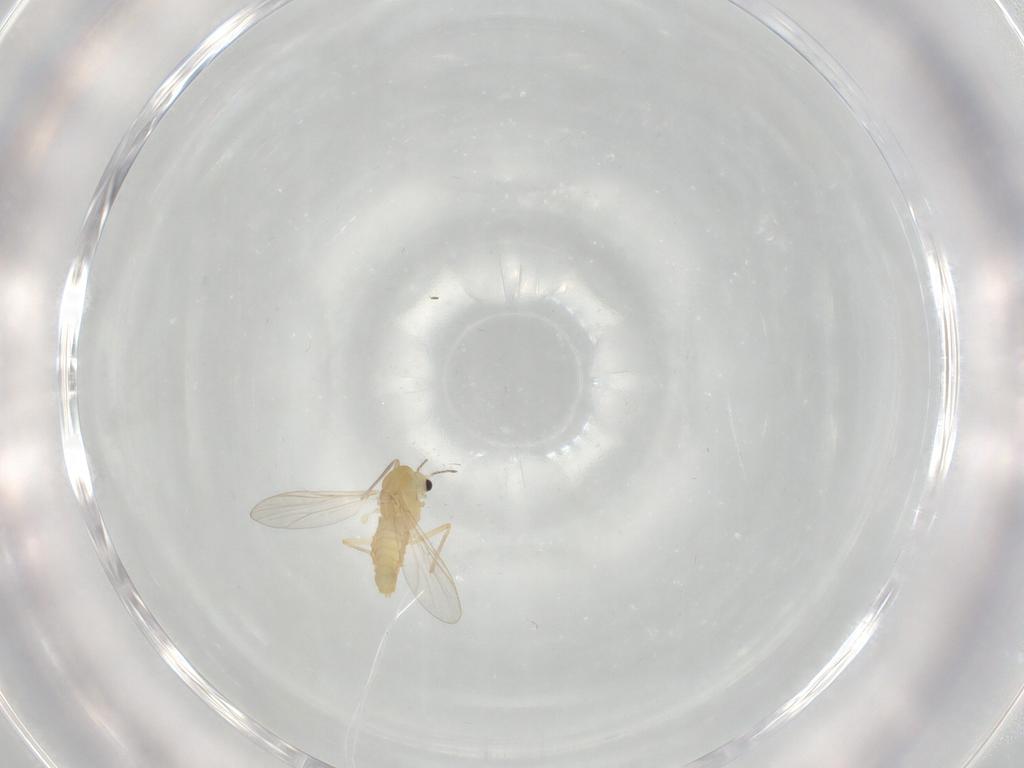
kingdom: Animalia
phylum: Arthropoda
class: Insecta
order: Diptera
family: Chironomidae
